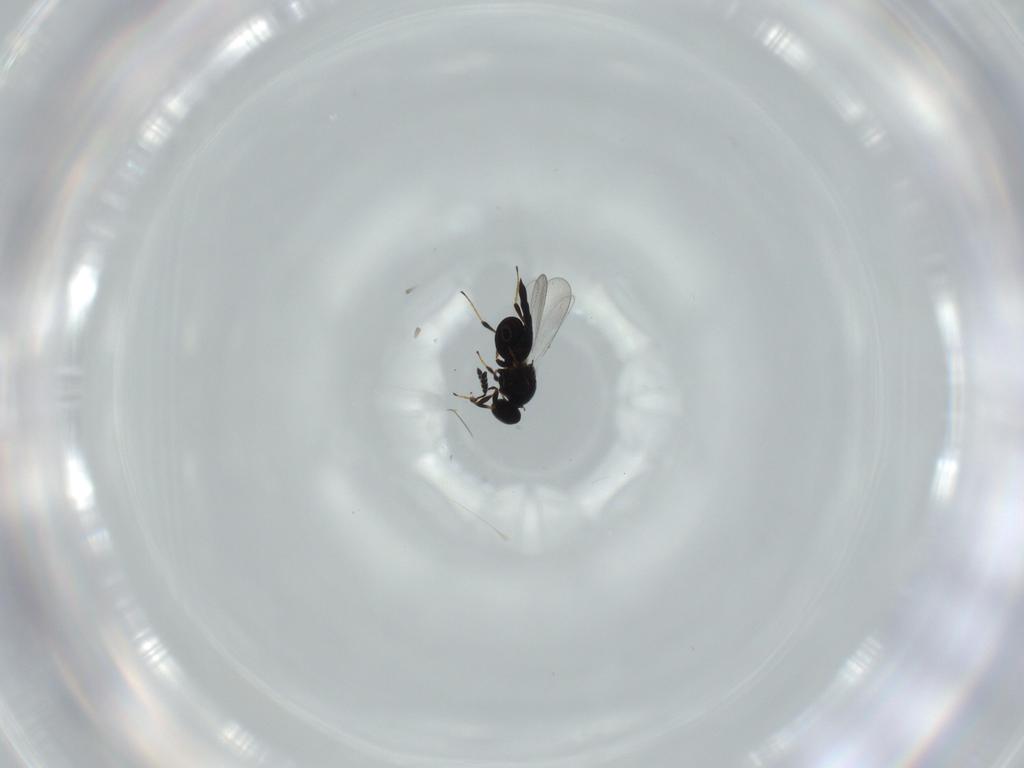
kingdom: Animalia
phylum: Arthropoda
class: Insecta
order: Hymenoptera
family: Platygastridae
